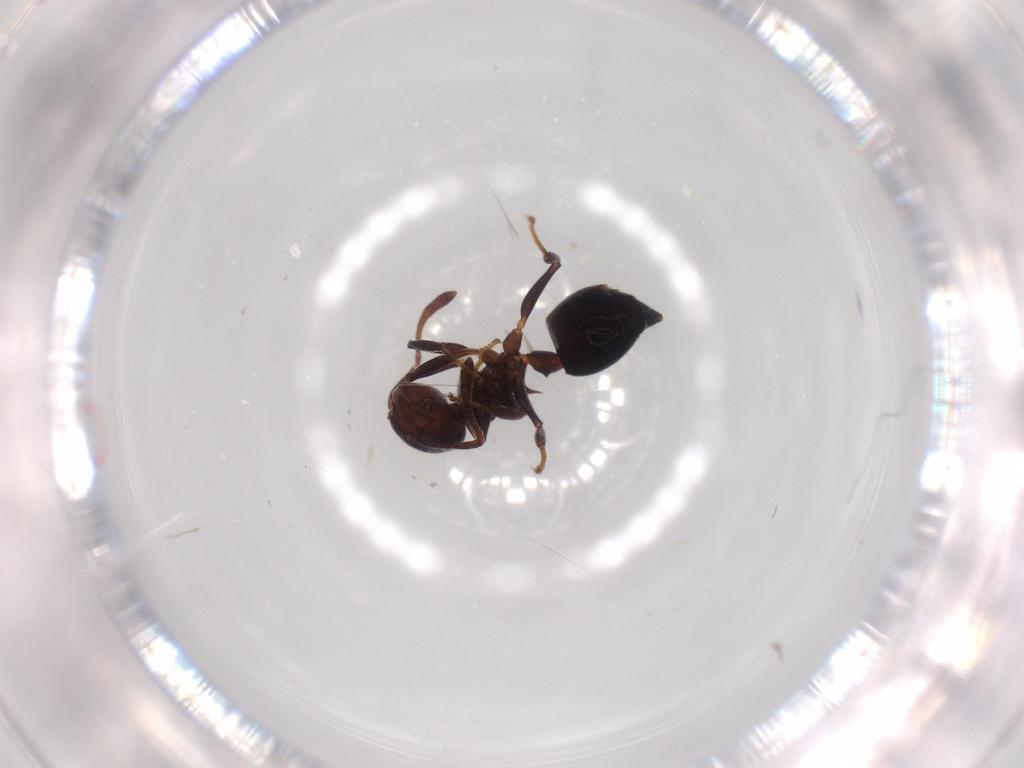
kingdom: Animalia
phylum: Arthropoda
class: Insecta
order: Hymenoptera
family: Formicidae
